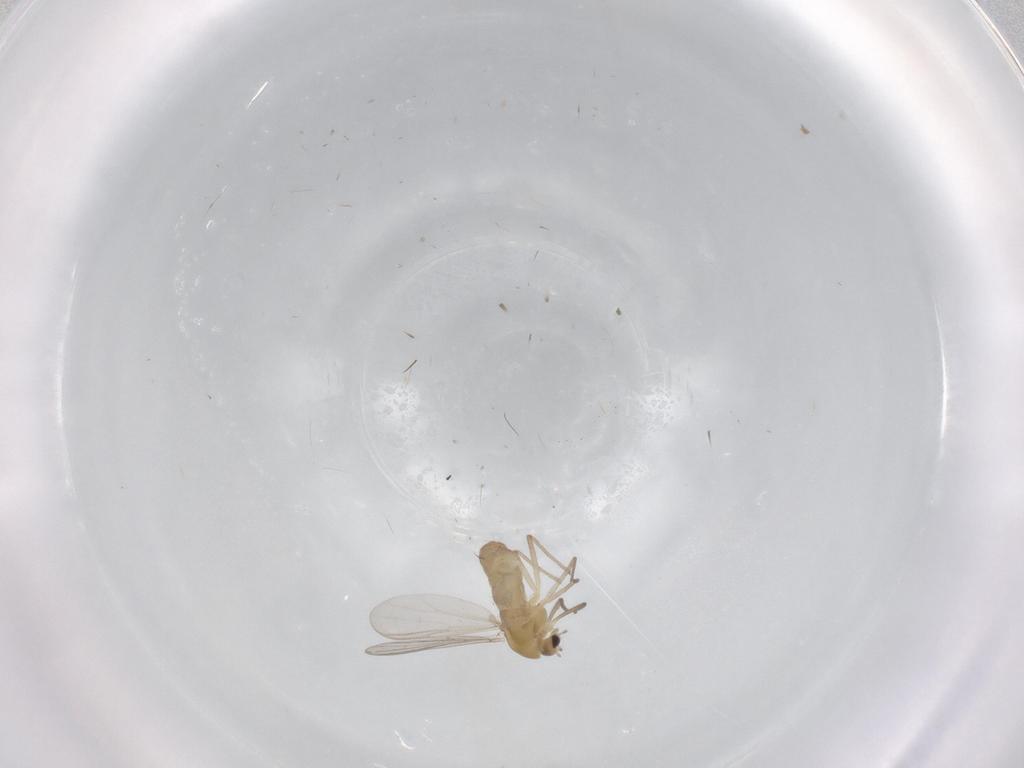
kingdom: Animalia
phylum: Arthropoda
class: Insecta
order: Diptera
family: Chironomidae
